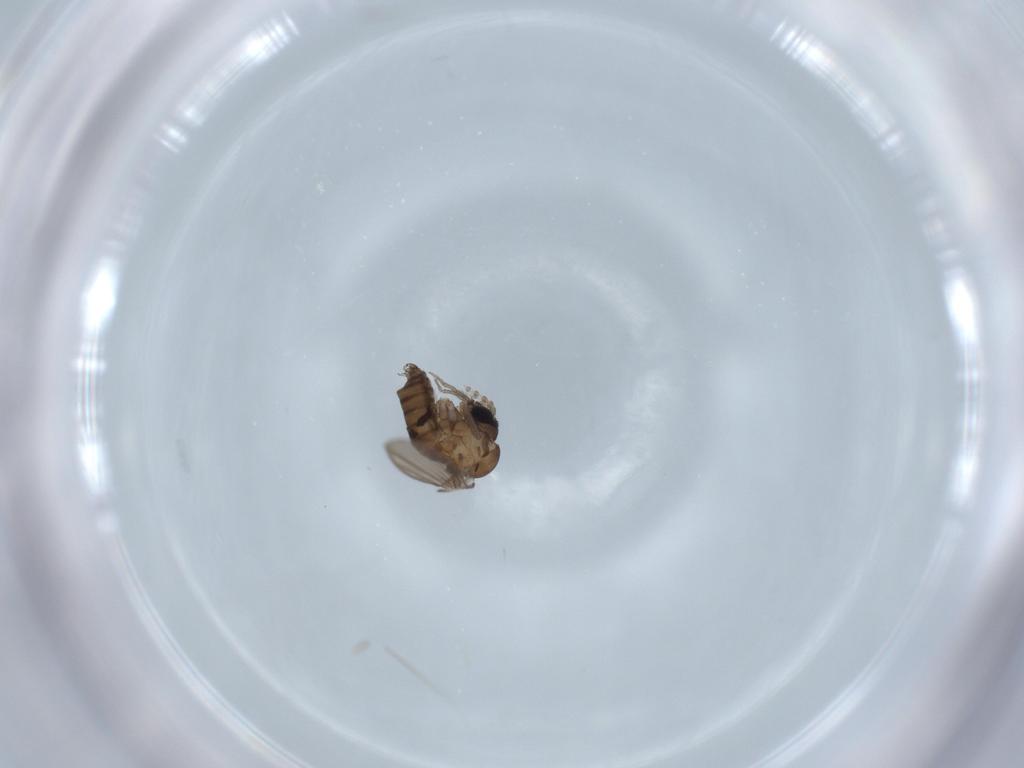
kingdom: Animalia
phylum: Arthropoda
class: Insecta
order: Diptera
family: Psychodidae
